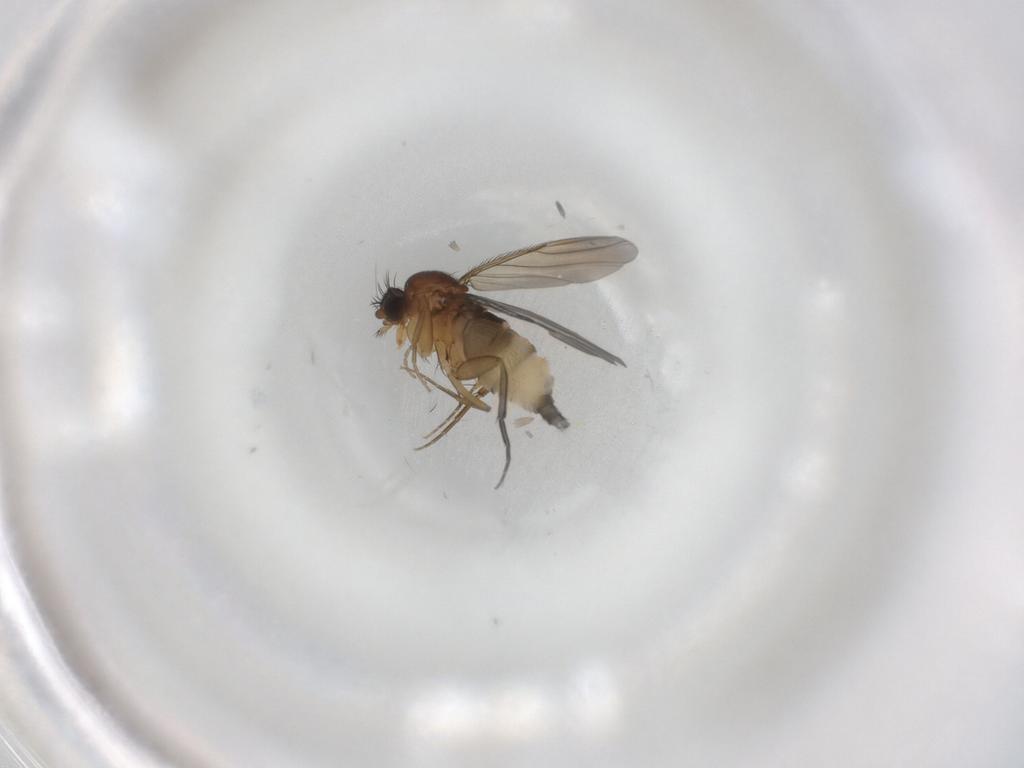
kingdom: Animalia
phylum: Arthropoda
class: Insecta
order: Diptera
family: Phoridae
